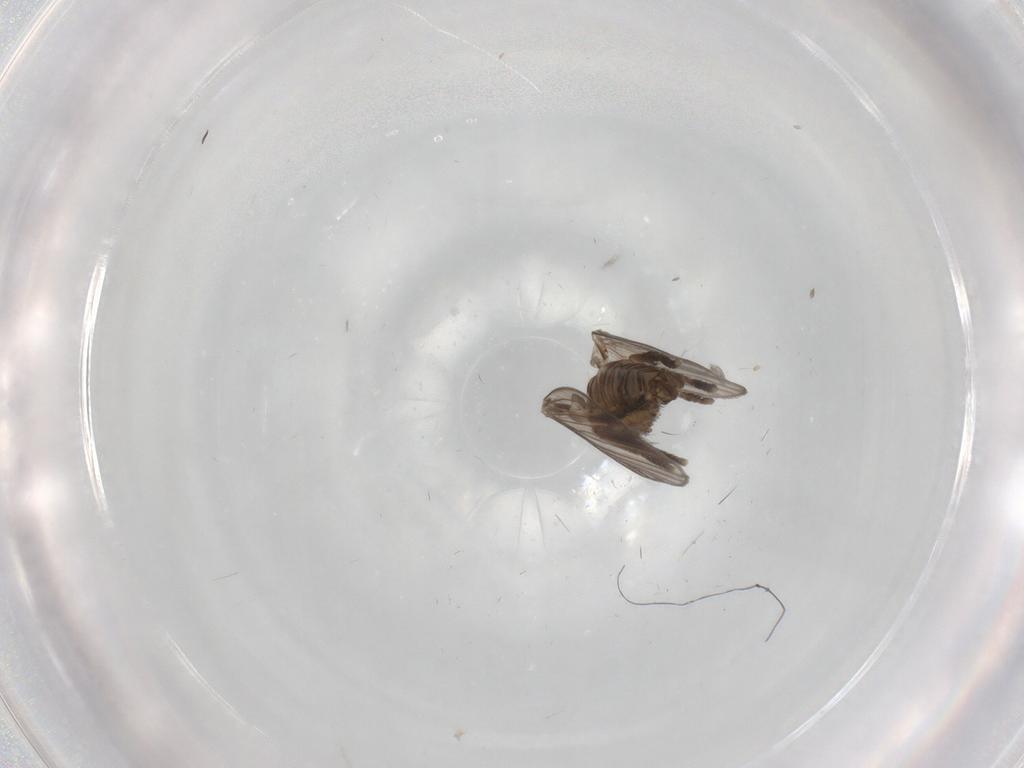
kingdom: Animalia
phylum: Arthropoda
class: Insecta
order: Diptera
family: Psychodidae
